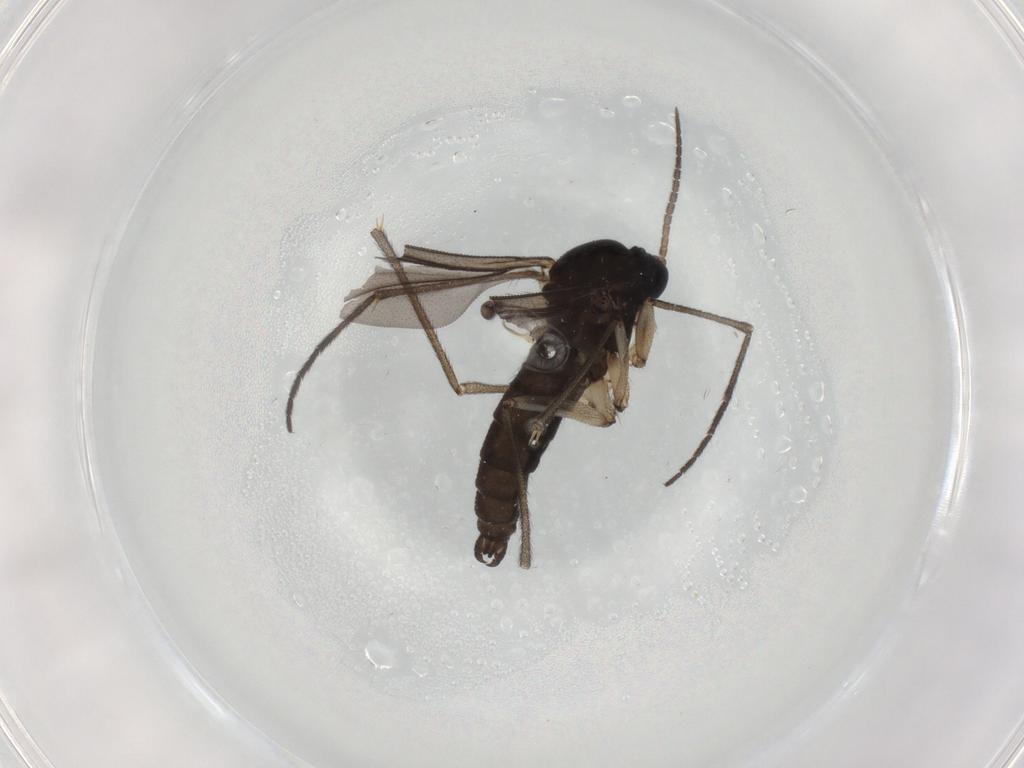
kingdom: Animalia
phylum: Arthropoda
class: Insecta
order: Diptera
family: Sciaridae
